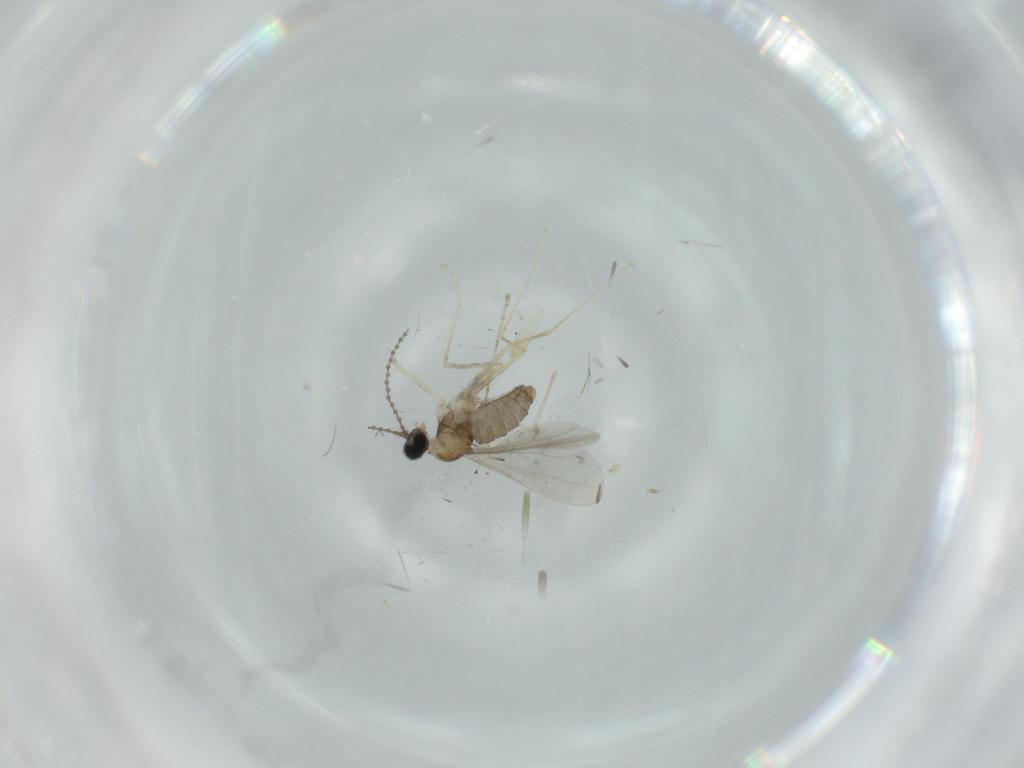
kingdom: Animalia
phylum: Arthropoda
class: Insecta
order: Diptera
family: Cecidomyiidae
